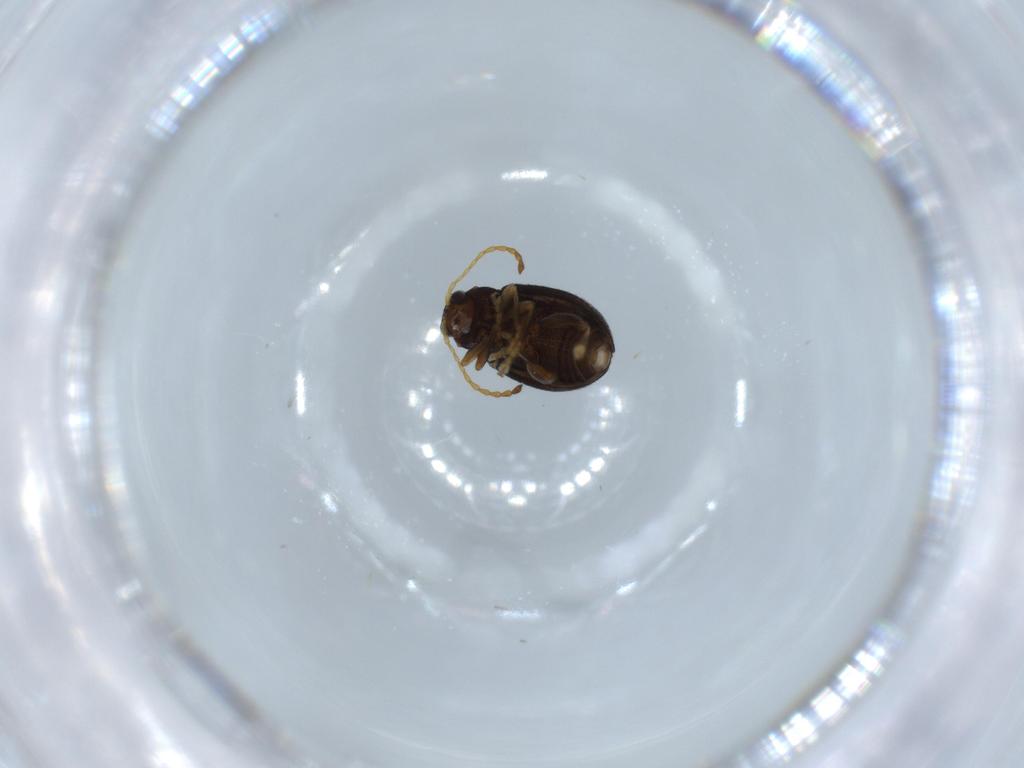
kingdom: Animalia
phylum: Arthropoda
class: Insecta
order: Coleoptera
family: Chrysomelidae
